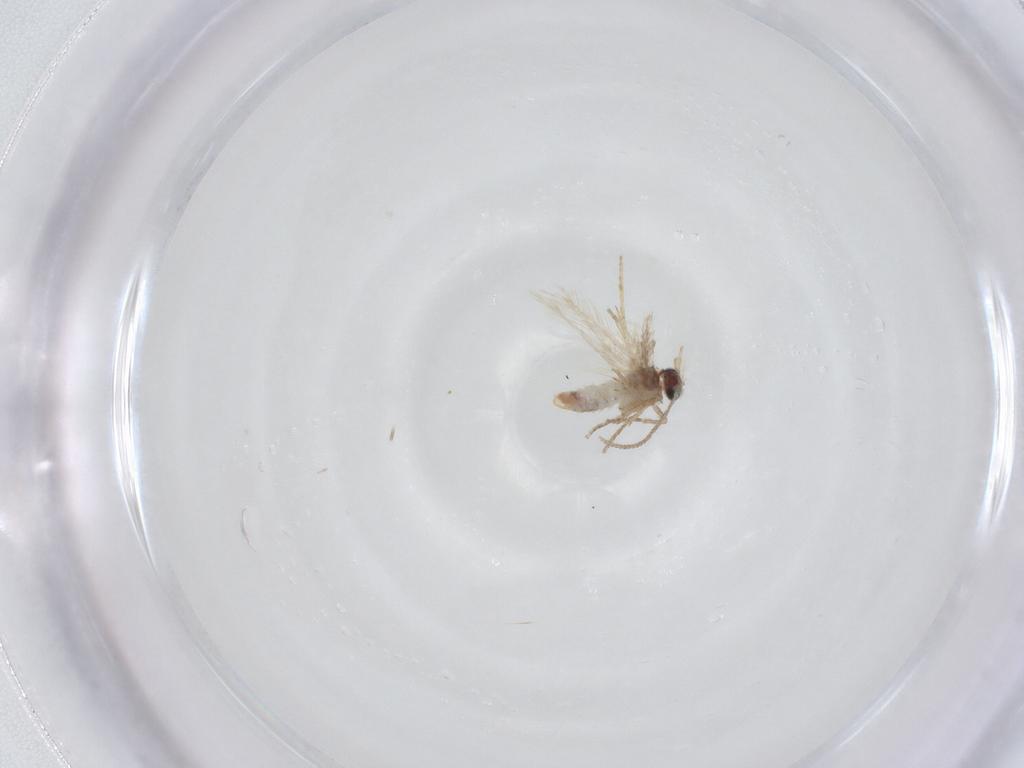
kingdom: Animalia
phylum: Arthropoda
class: Insecta
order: Lepidoptera
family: Nepticulidae
